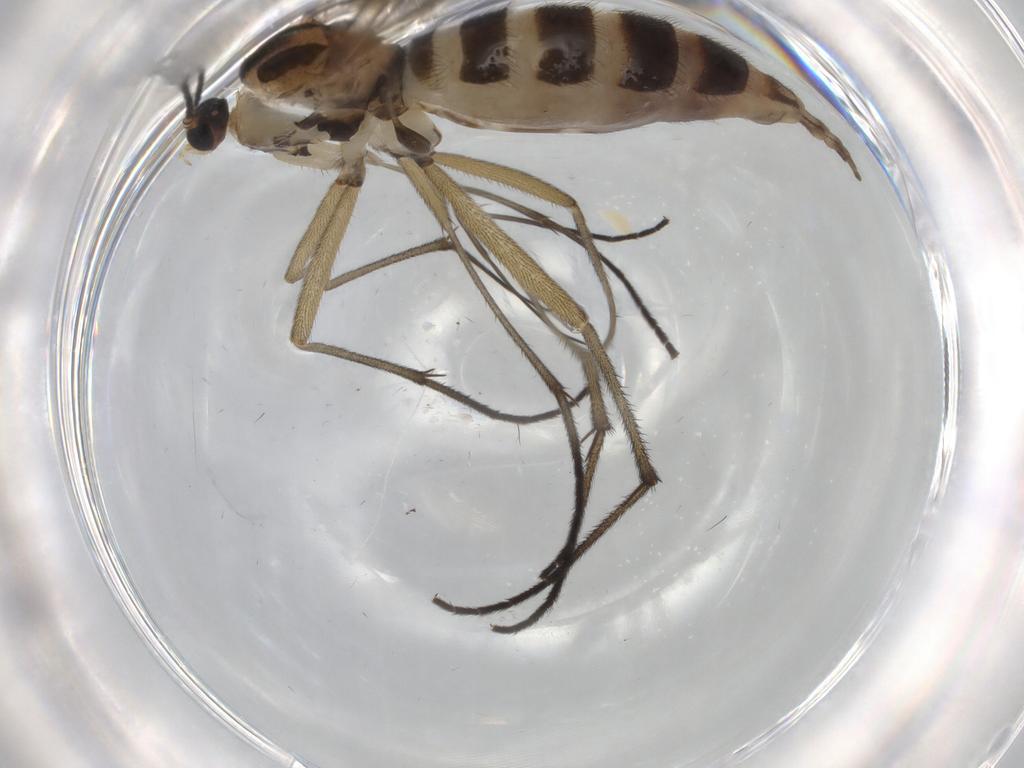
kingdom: Animalia
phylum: Arthropoda
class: Insecta
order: Diptera
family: Sciaridae
